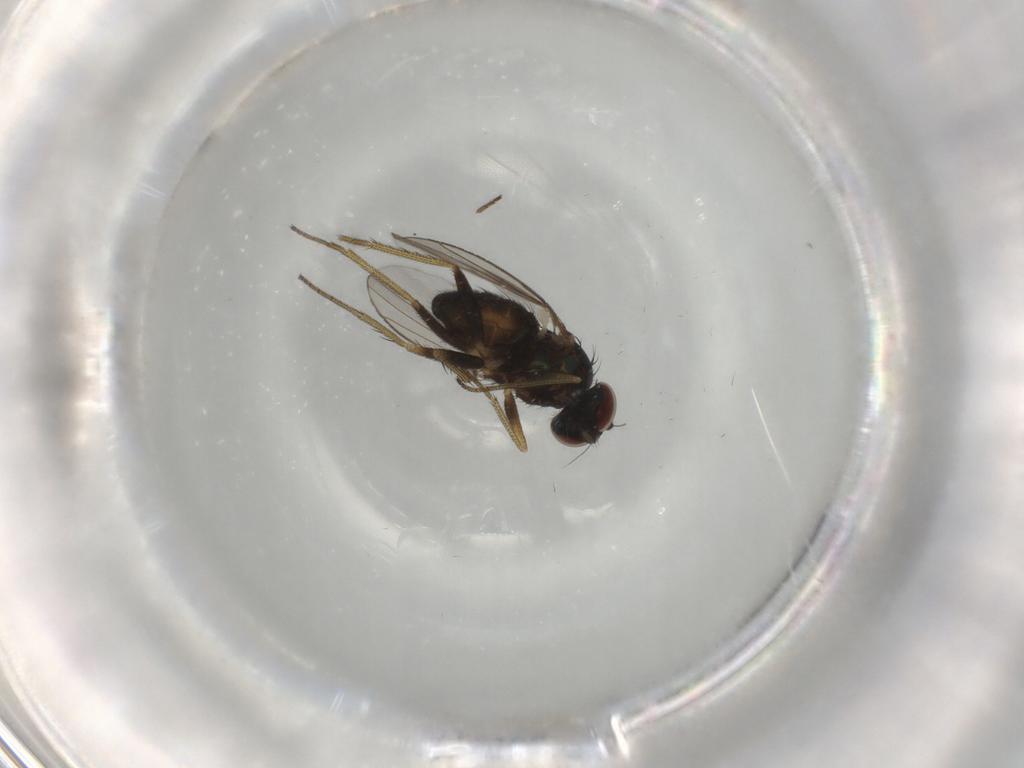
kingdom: Animalia
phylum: Arthropoda
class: Insecta
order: Diptera
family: Dolichopodidae
